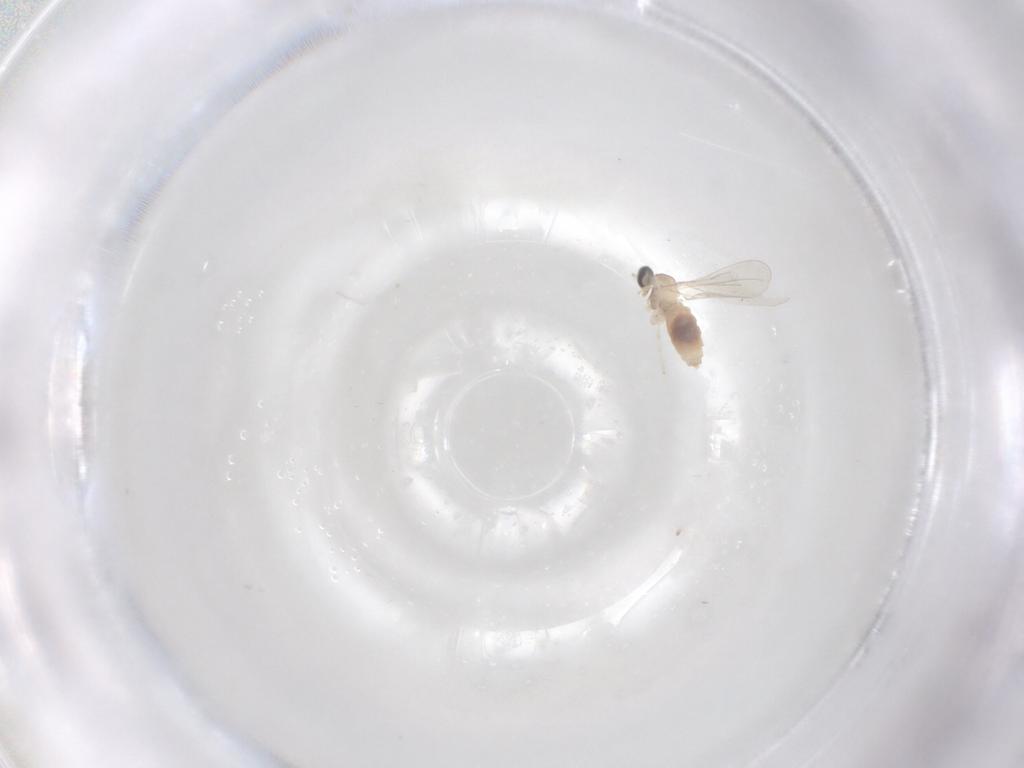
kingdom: Animalia
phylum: Arthropoda
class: Insecta
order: Diptera
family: Cecidomyiidae
